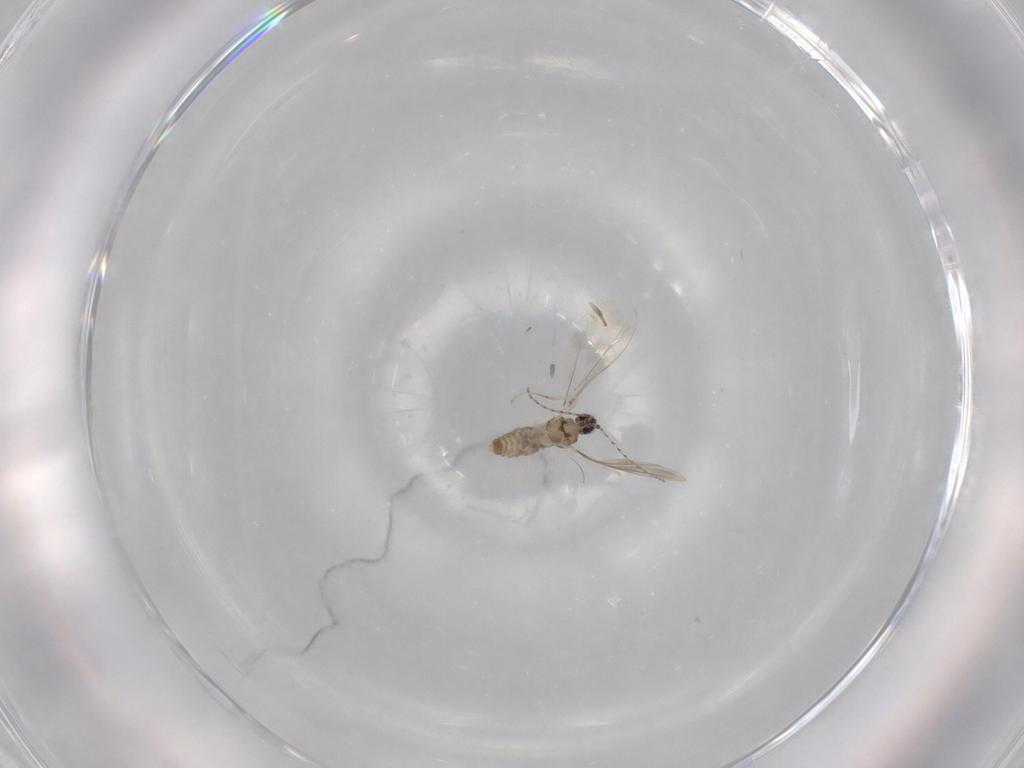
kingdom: Animalia
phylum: Arthropoda
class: Insecta
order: Diptera
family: Cecidomyiidae
